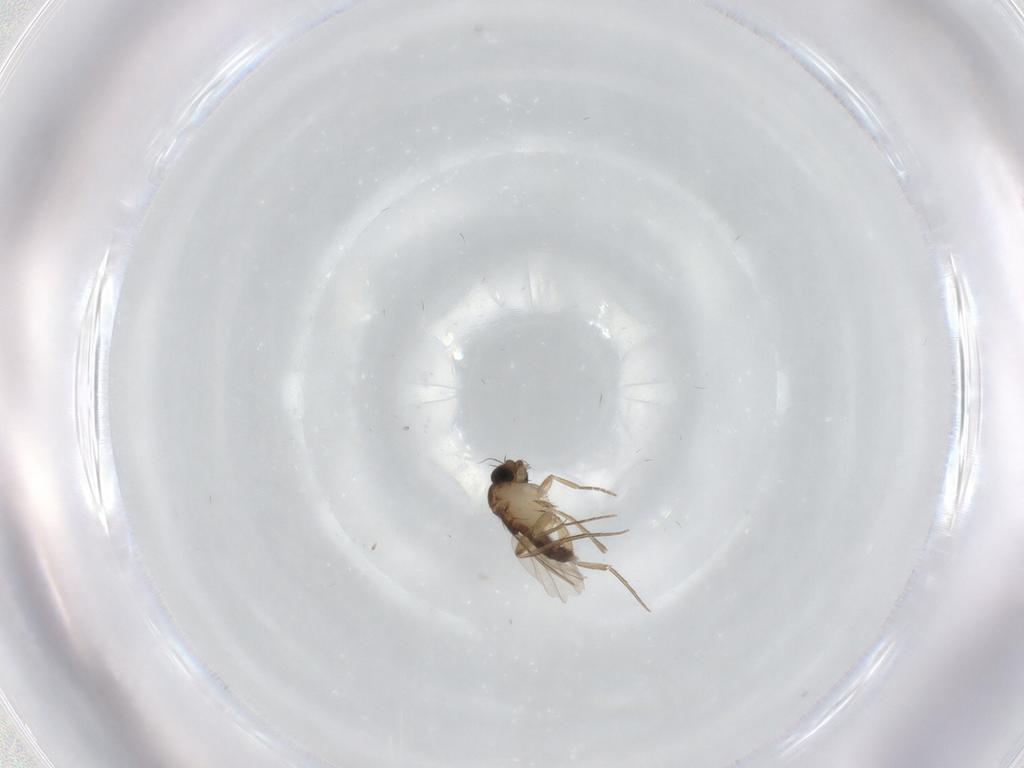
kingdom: Animalia
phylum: Arthropoda
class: Insecta
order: Diptera
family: Phoridae
